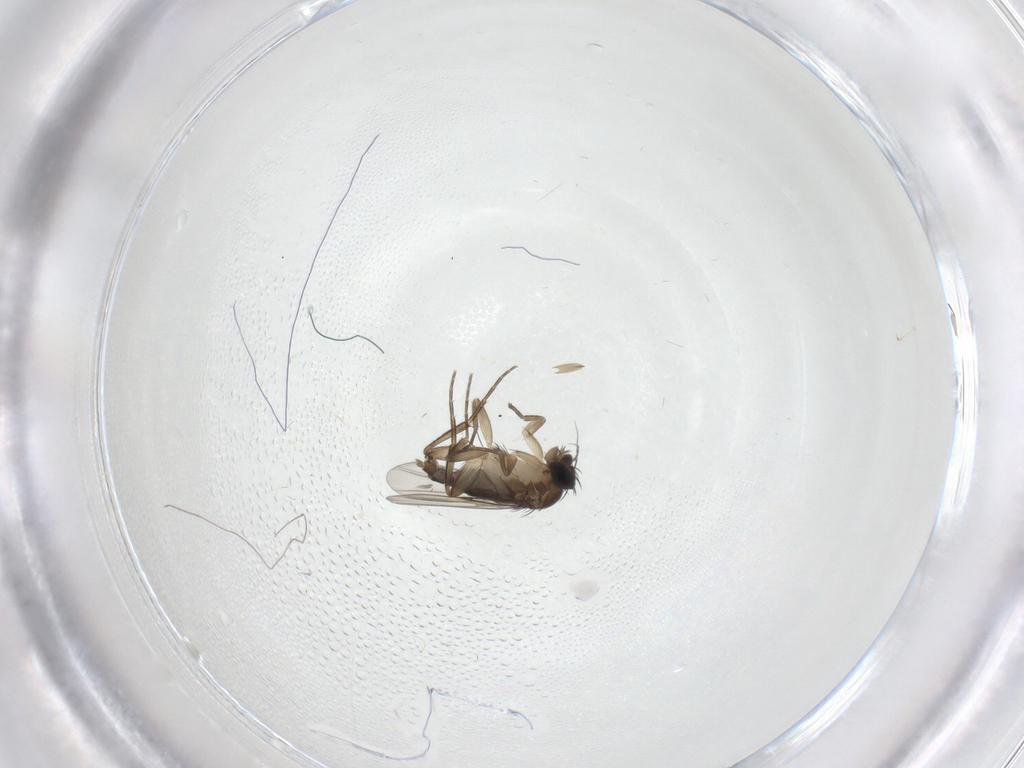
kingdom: Animalia
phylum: Arthropoda
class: Insecta
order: Diptera
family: Phoridae
